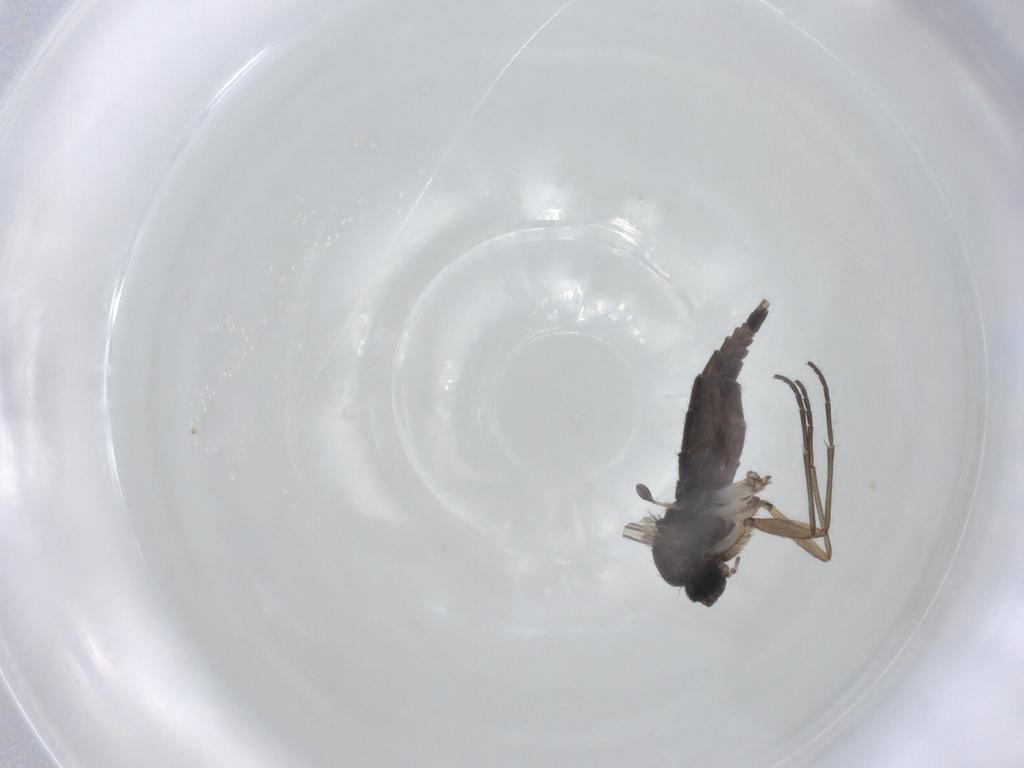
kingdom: Animalia
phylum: Arthropoda
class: Insecta
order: Diptera
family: Sciaridae
